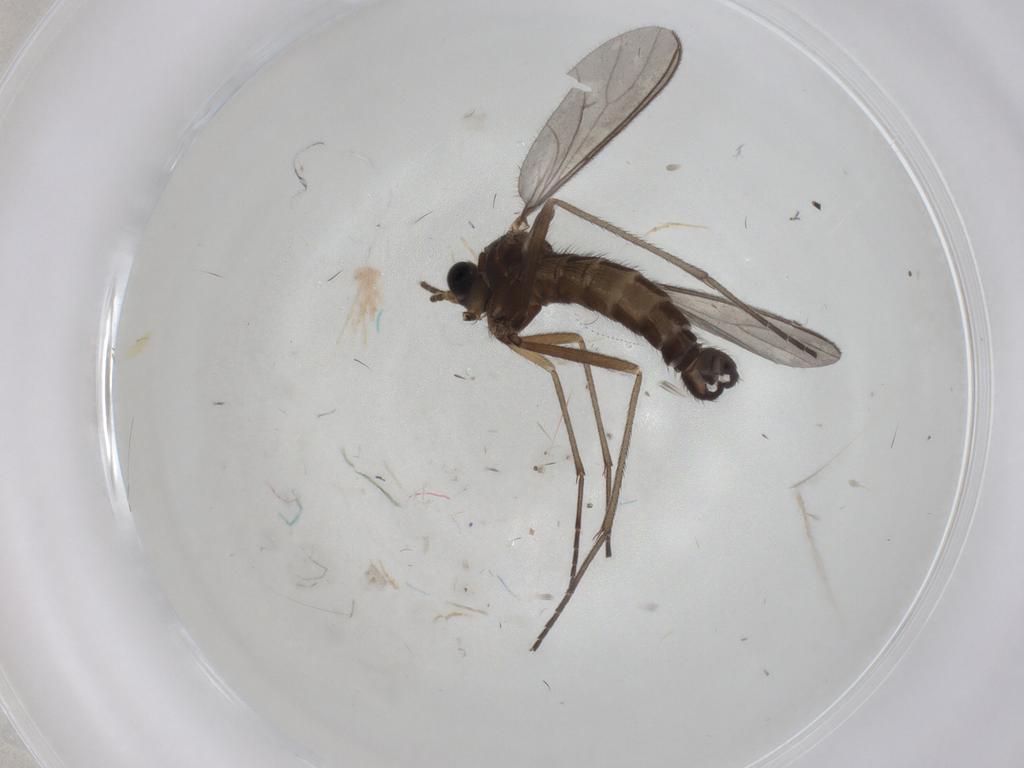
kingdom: Animalia
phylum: Arthropoda
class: Insecta
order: Diptera
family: Sciaridae
